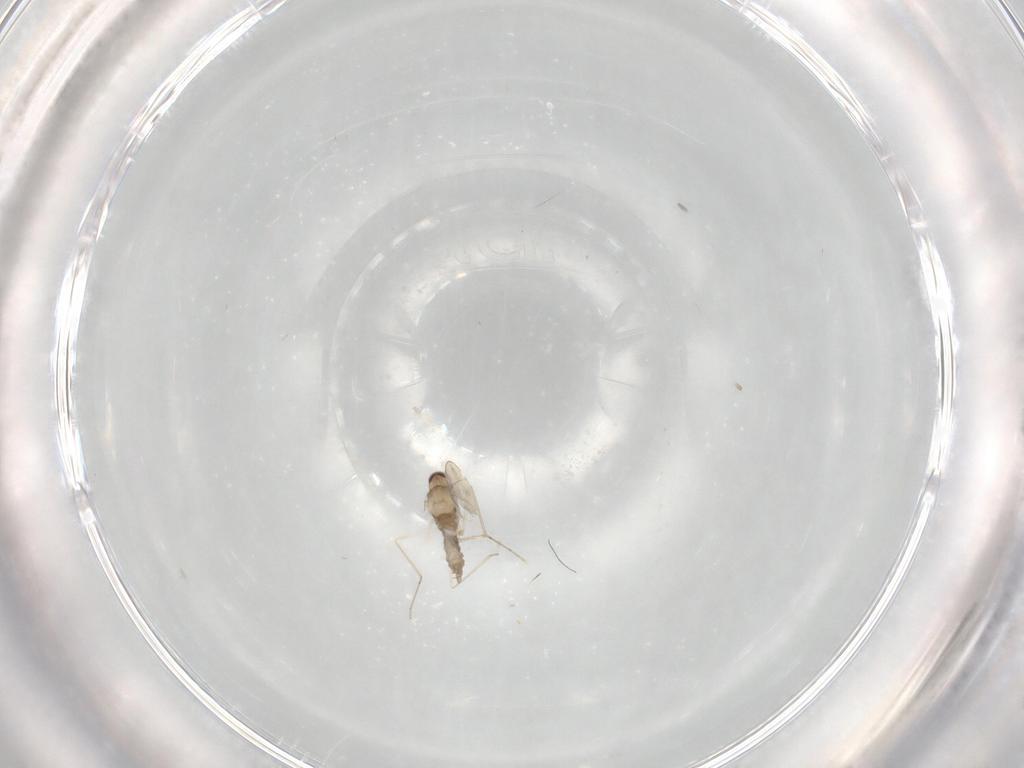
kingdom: Animalia
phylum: Arthropoda
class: Insecta
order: Diptera
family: Cecidomyiidae
